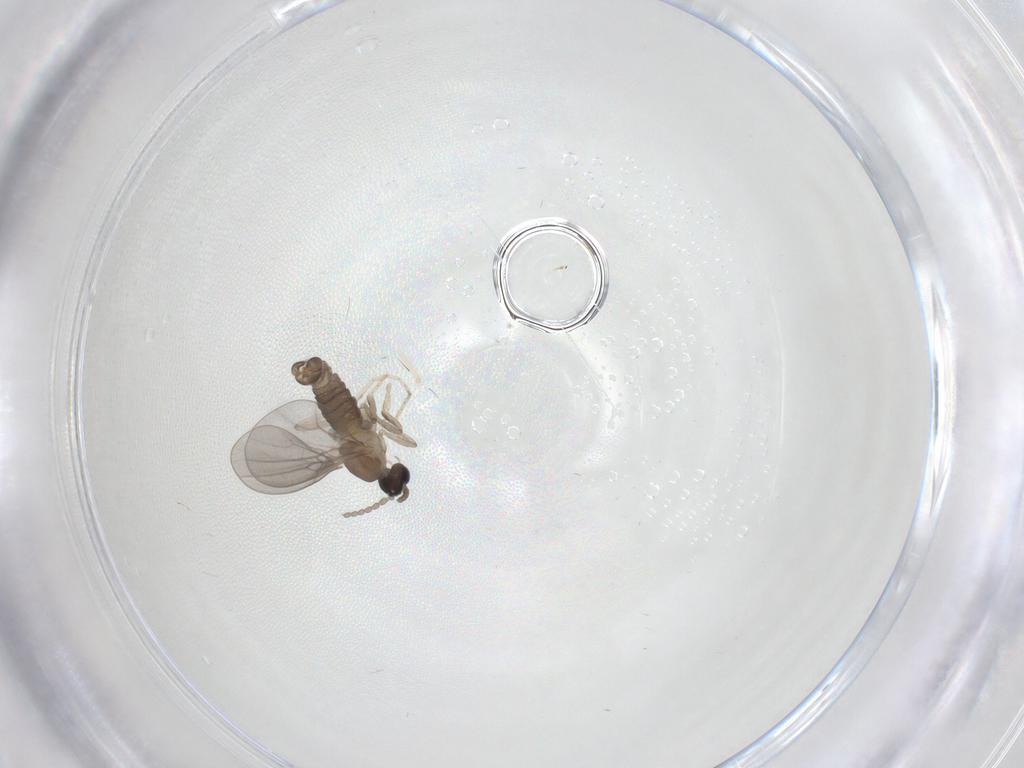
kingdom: Animalia
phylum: Arthropoda
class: Insecta
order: Diptera
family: Cecidomyiidae
